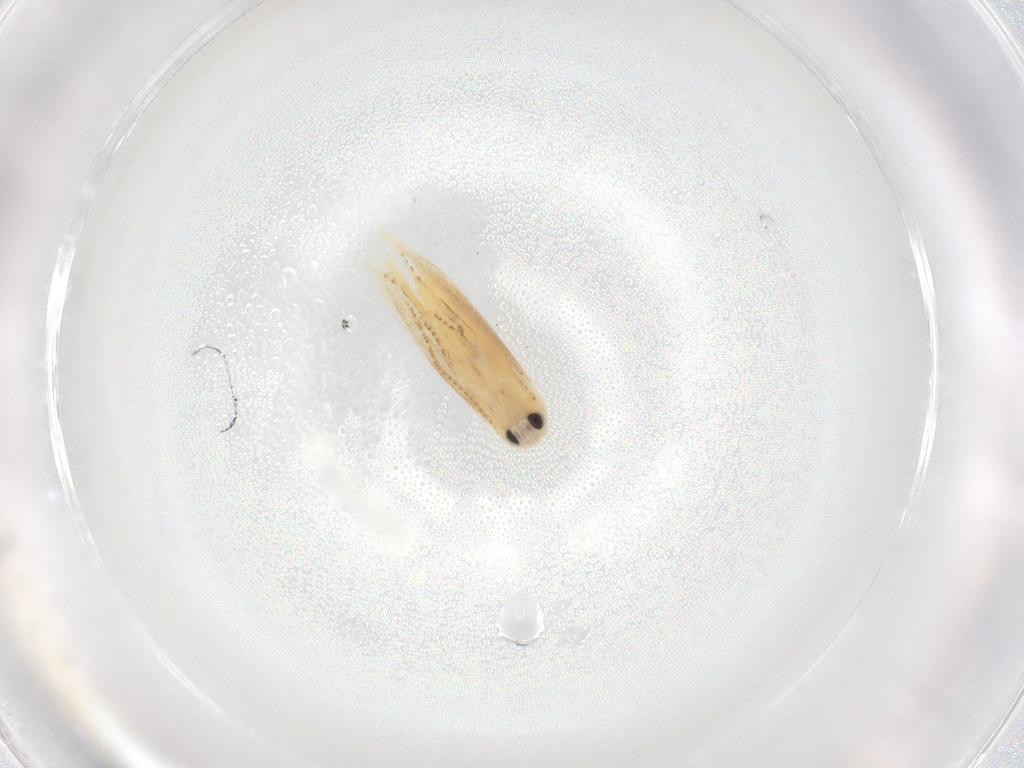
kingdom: Animalia
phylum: Arthropoda
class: Insecta
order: Lepidoptera
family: Depressariidae
